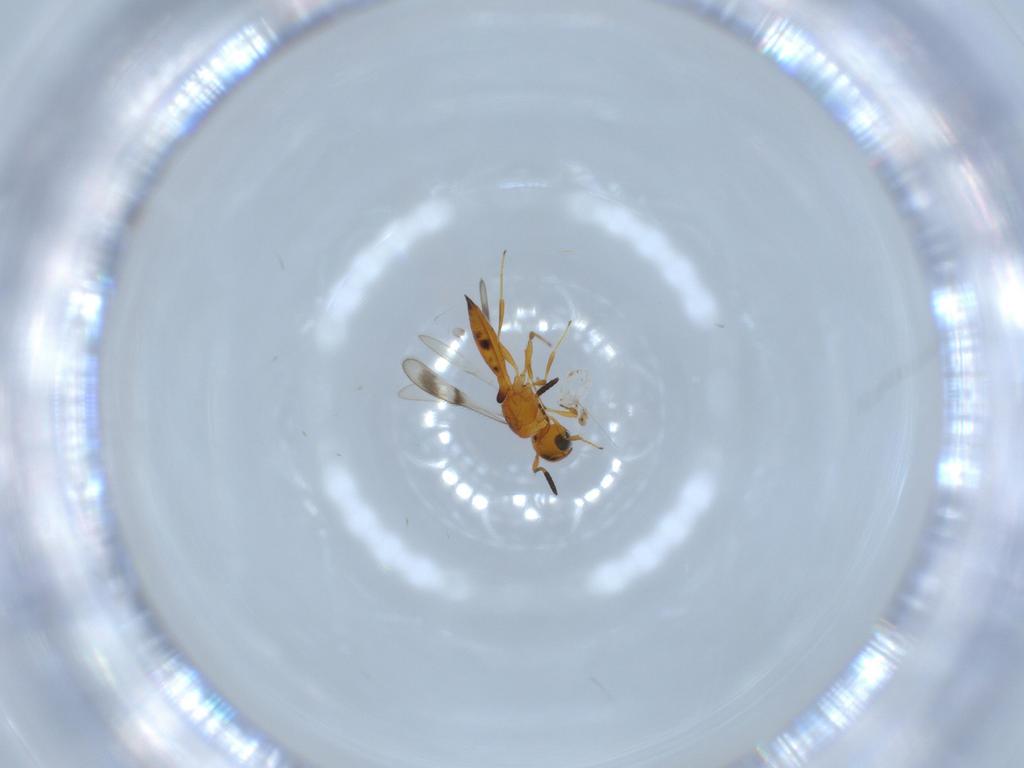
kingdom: Animalia
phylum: Arthropoda
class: Insecta
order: Hymenoptera
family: Scelionidae
